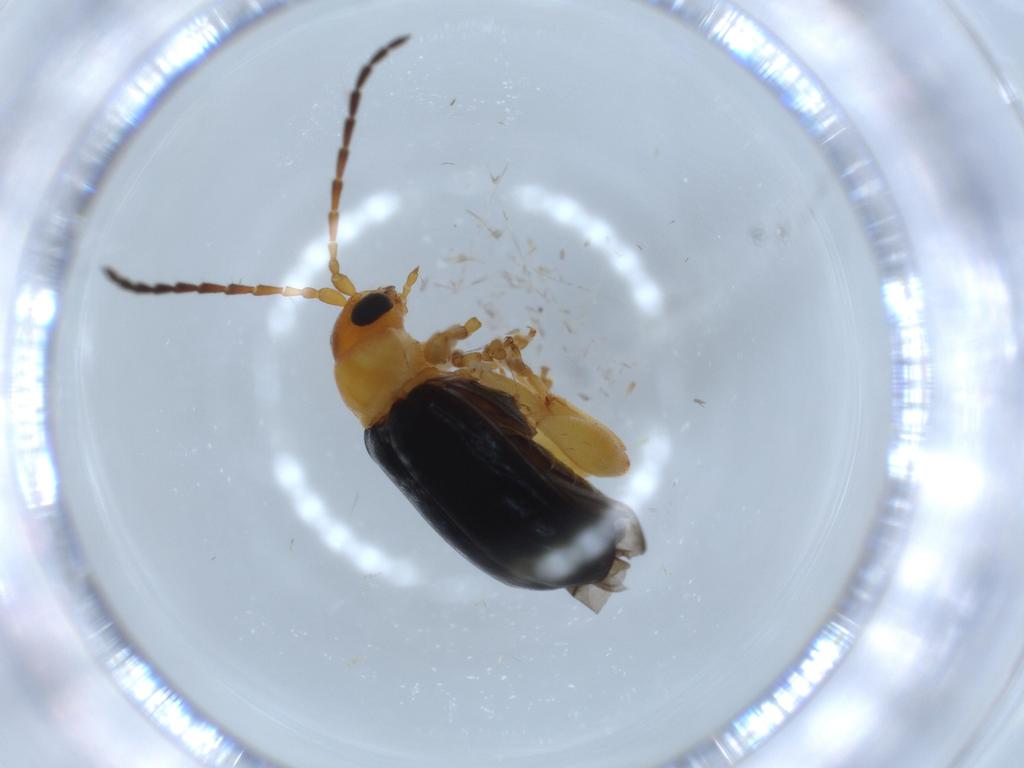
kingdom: Animalia
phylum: Arthropoda
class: Insecta
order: Coleoptera
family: Chrysomelidae
